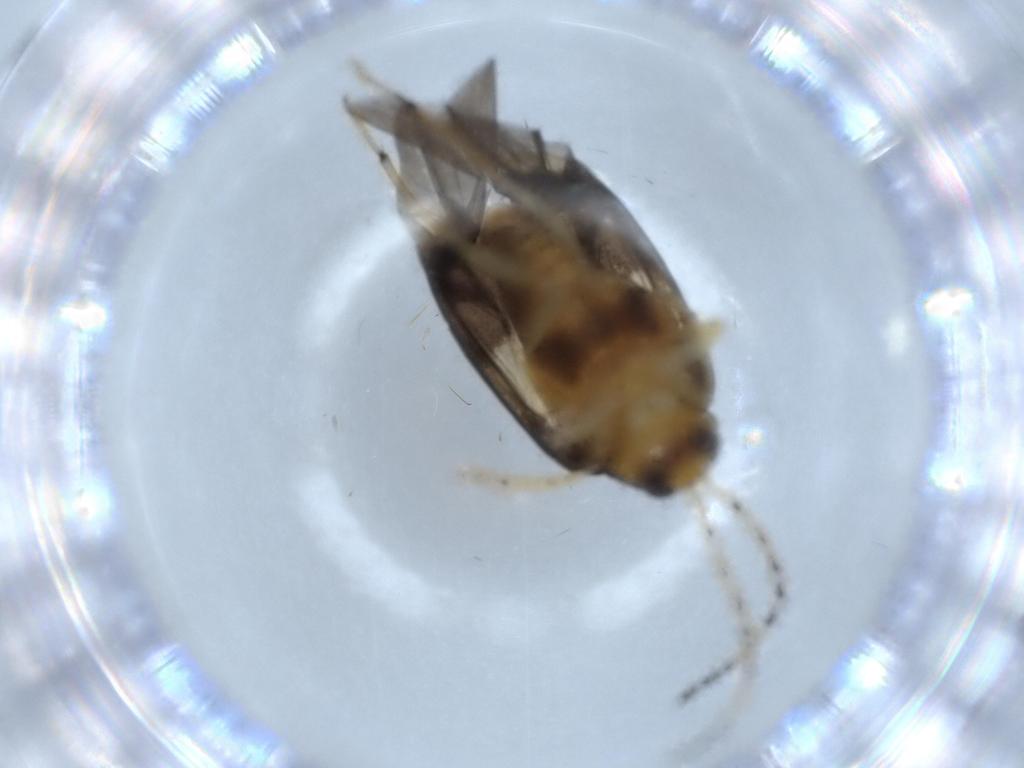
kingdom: Animalia
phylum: Arthropoda
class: Insecta
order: Coleoptera
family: Chrysomelidae
